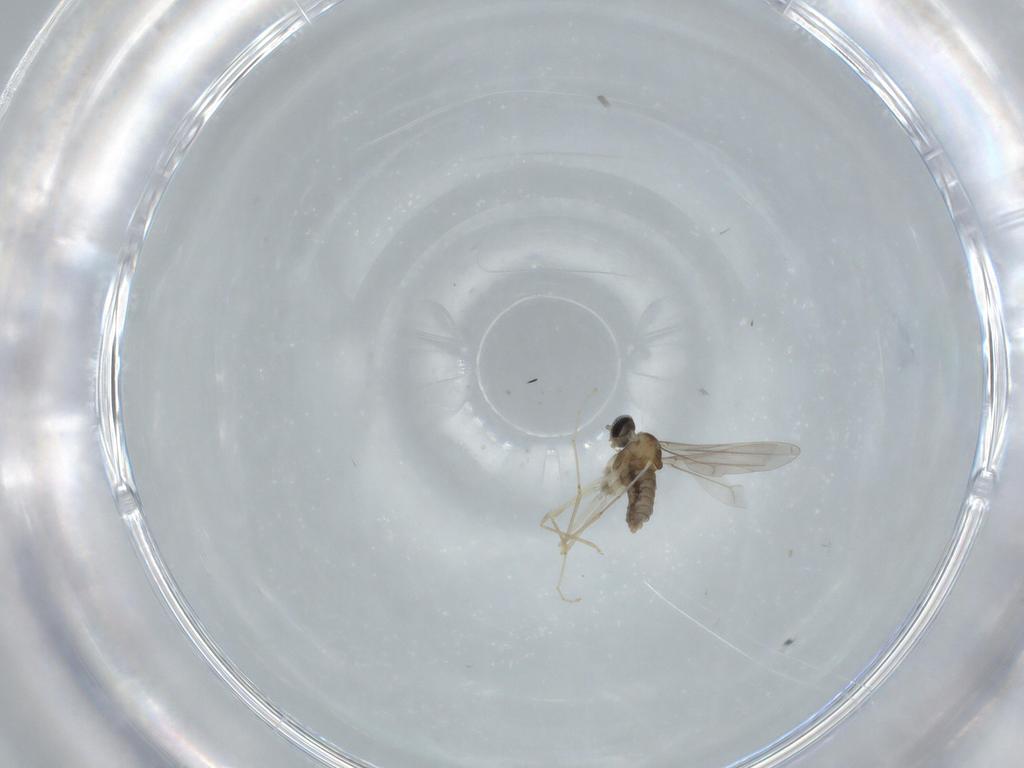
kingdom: Animalia
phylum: Arthropoda
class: Insecta
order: Diptera
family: Cecidomyiidae
